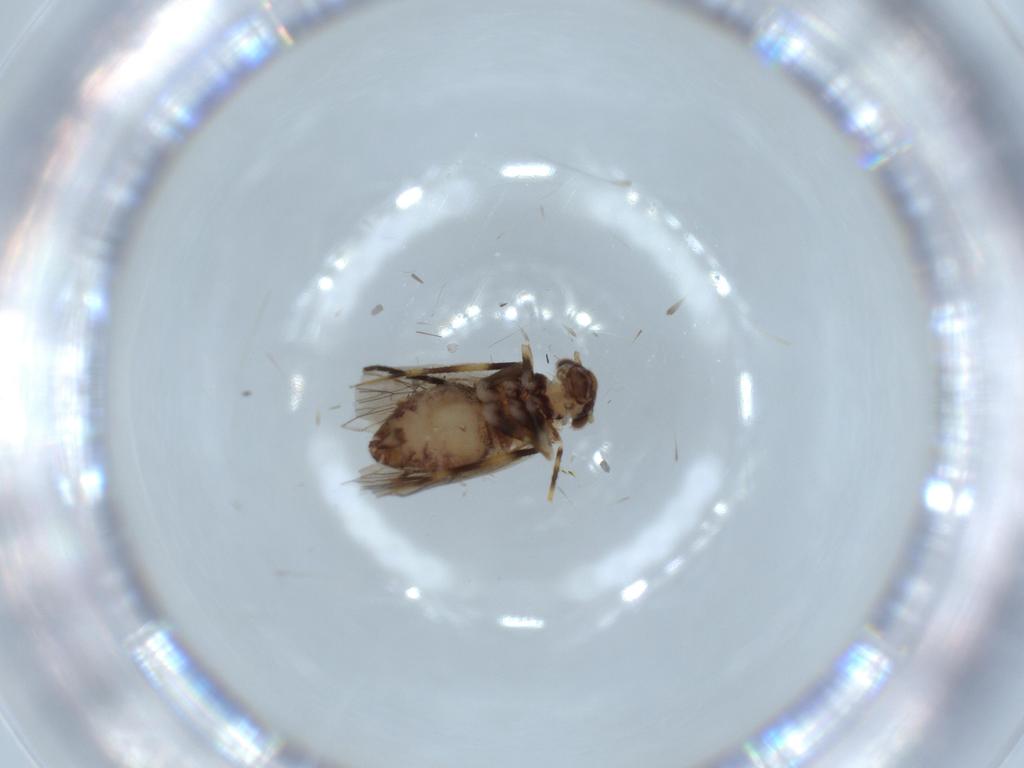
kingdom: Animalia
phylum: Arthropoda
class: Insecta
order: Psocodea
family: Lepidopsocidae
